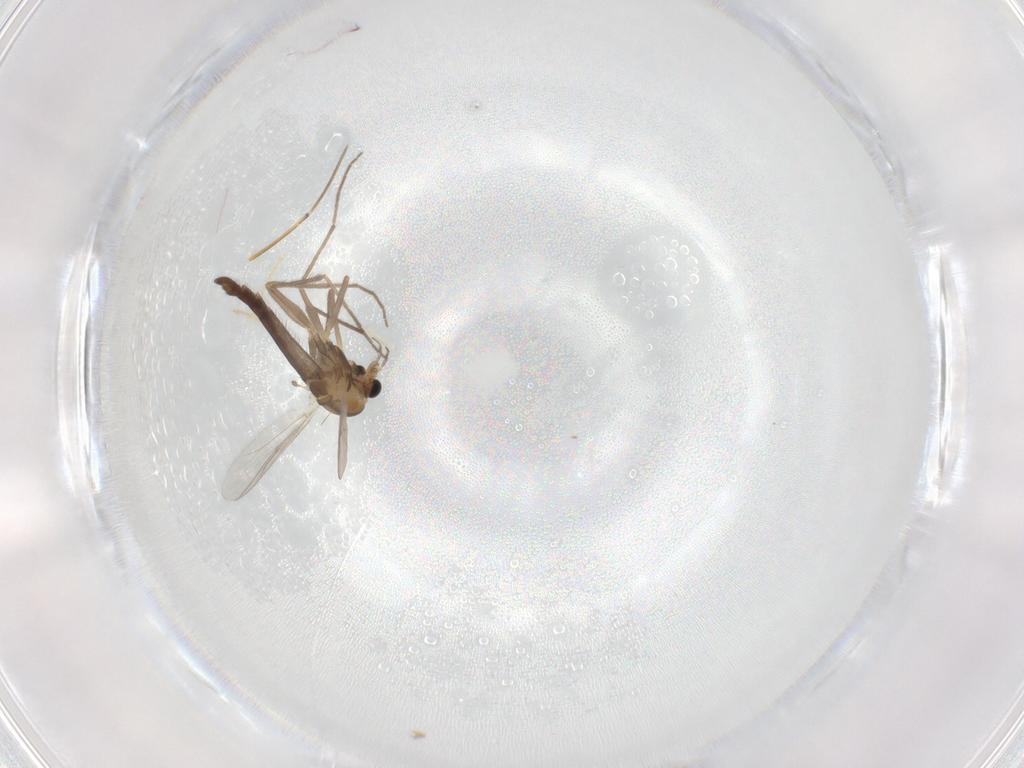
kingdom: Animalia
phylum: Arthropoda
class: Insecta
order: Diptera
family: Chironomidae
